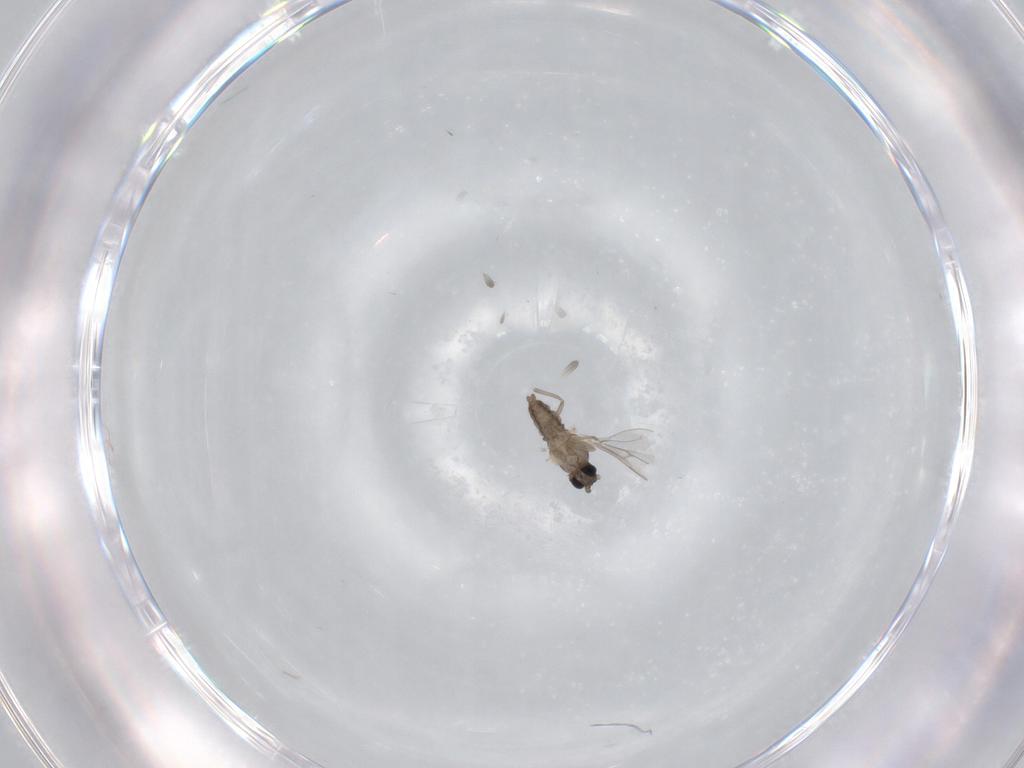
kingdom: Animalia
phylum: Arthropoda
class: Insecta
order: Diptera
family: Cecidomyiidae
